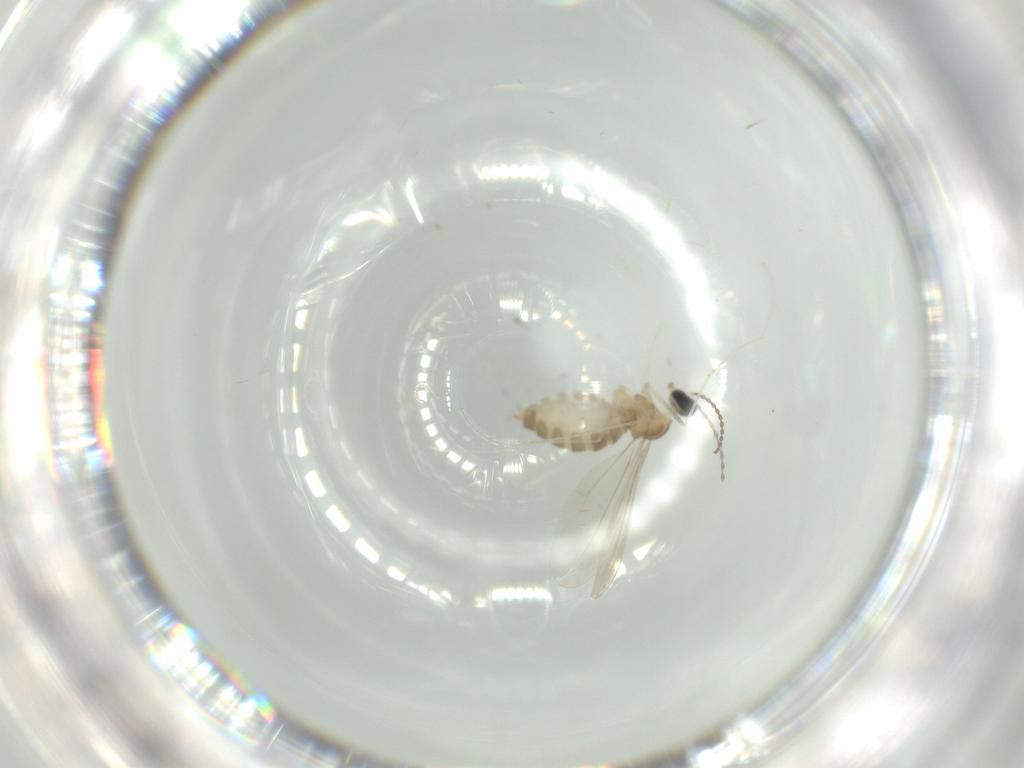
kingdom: Animalia
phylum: Arthropoda
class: Insecta
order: Diptera
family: Cecidomyiidae
